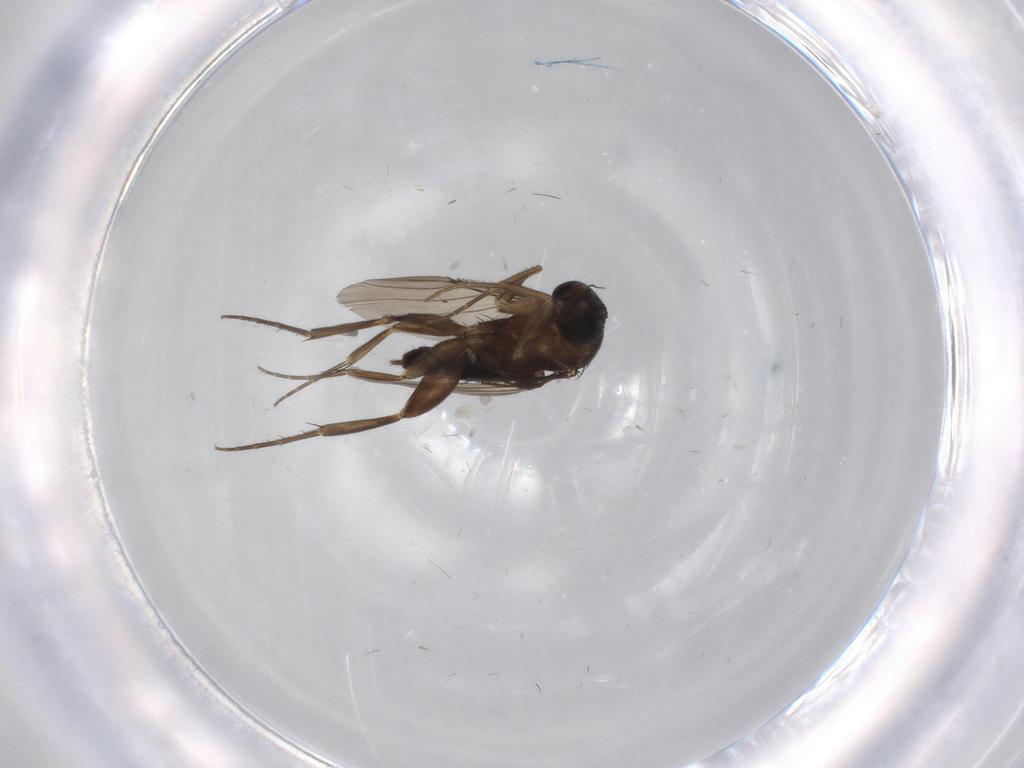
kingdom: Animalia
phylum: Arthropoda
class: Insecta
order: Diptera
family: Phoridae
